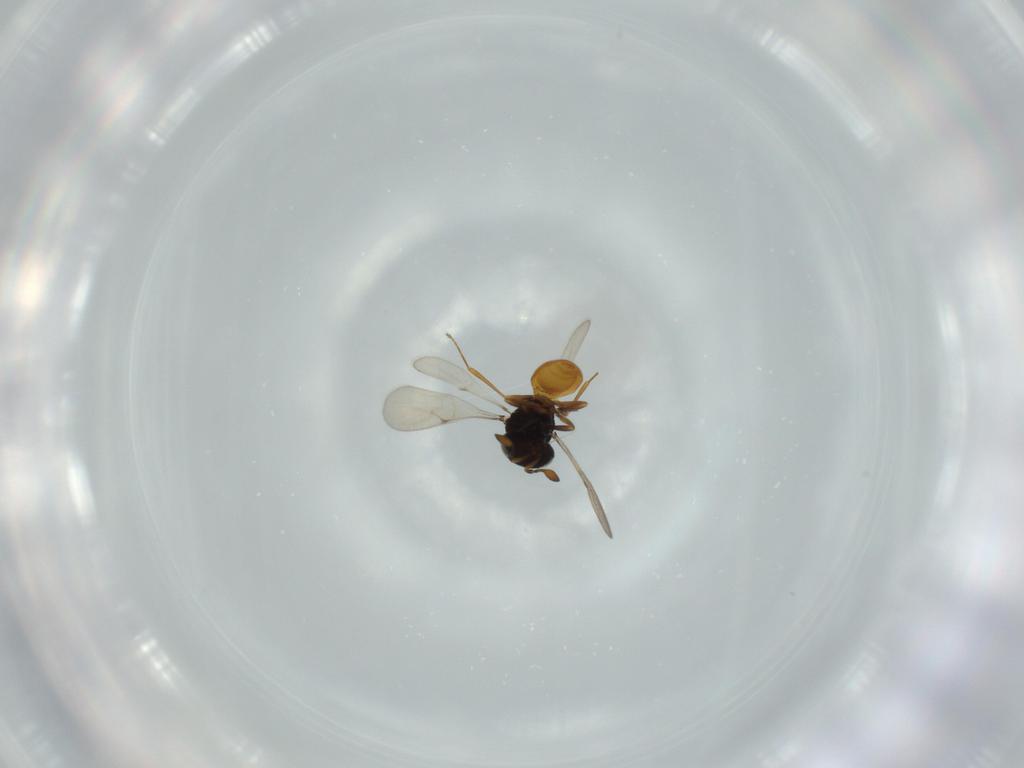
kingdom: Animalia
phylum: Arthropoda
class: Insecta
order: Hymenoptera
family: Scelionidae
